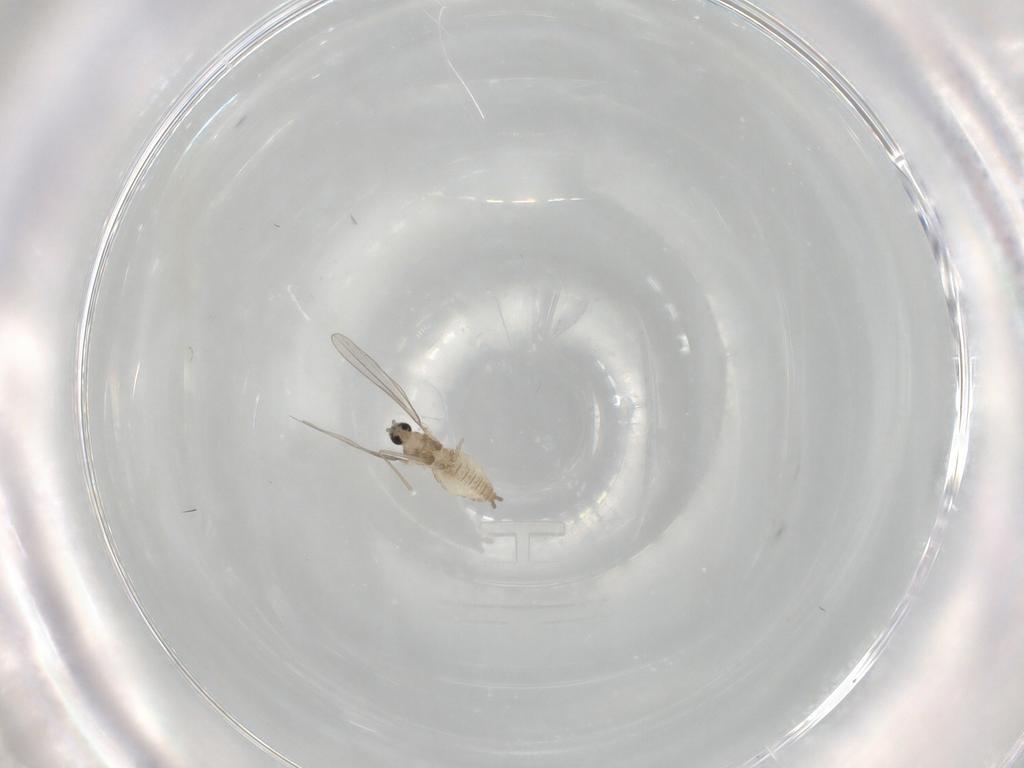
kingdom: Animalia
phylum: Arthropoda
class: Insecta
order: Diptera
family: Cecidomyiidae
